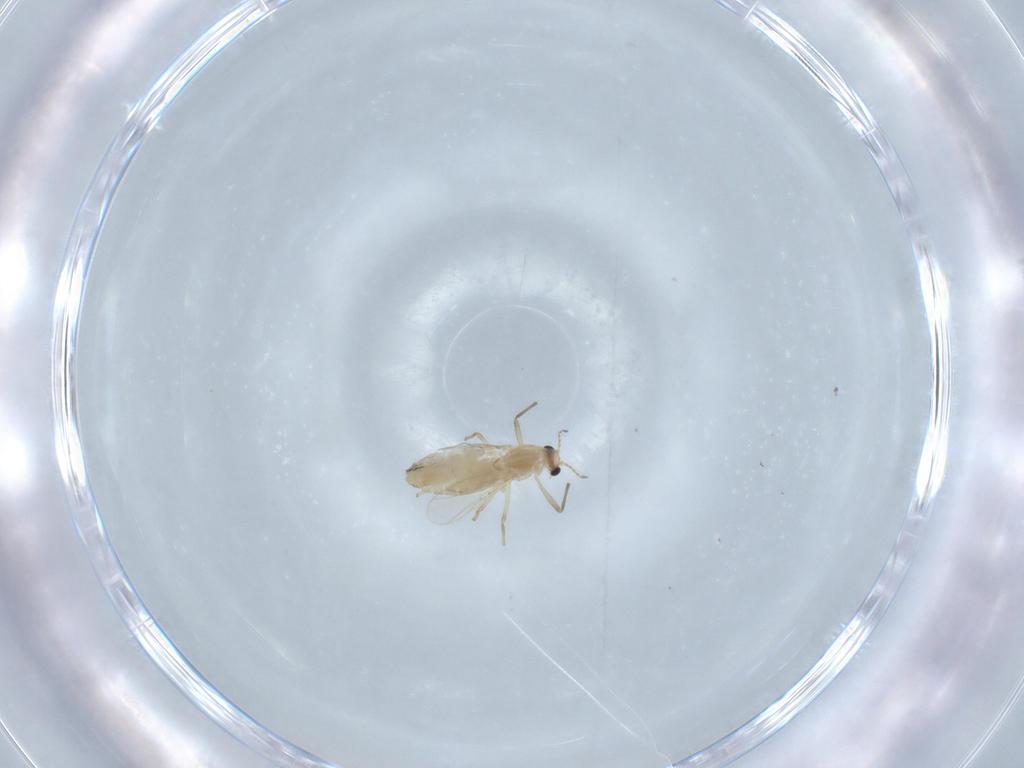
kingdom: Animalia
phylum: Arthropoda
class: Insecta
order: Diptera
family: Chironomidae
